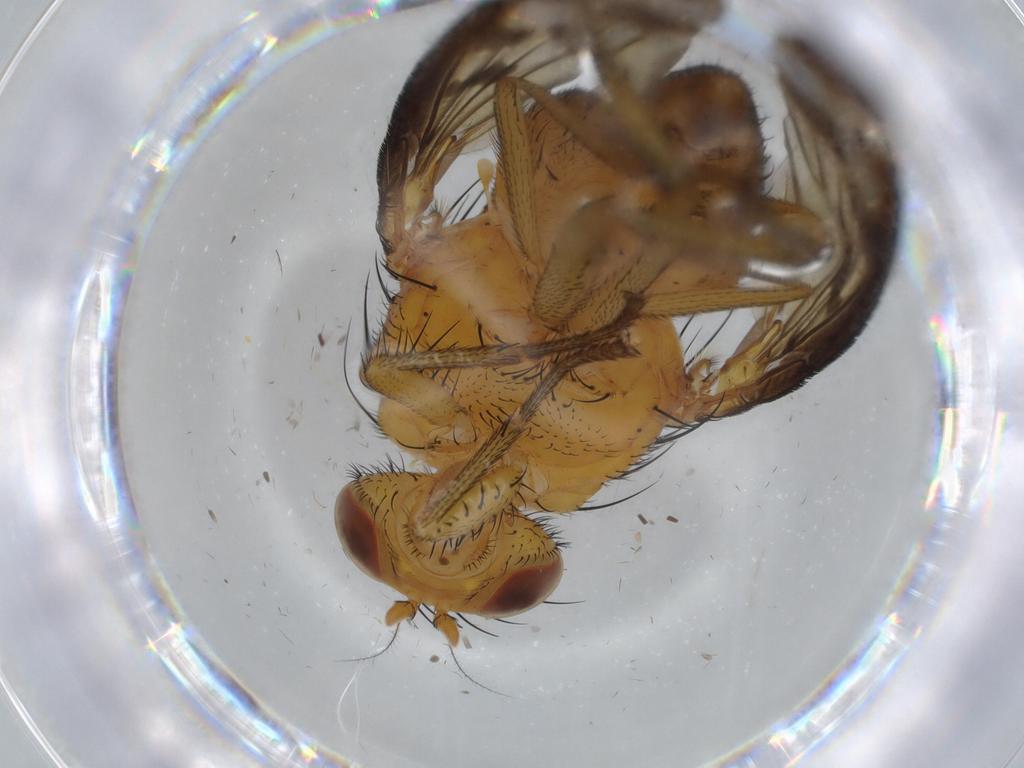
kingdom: Animalia
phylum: Arthropoda
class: Insecta
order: Diptera
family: Hybotidae
